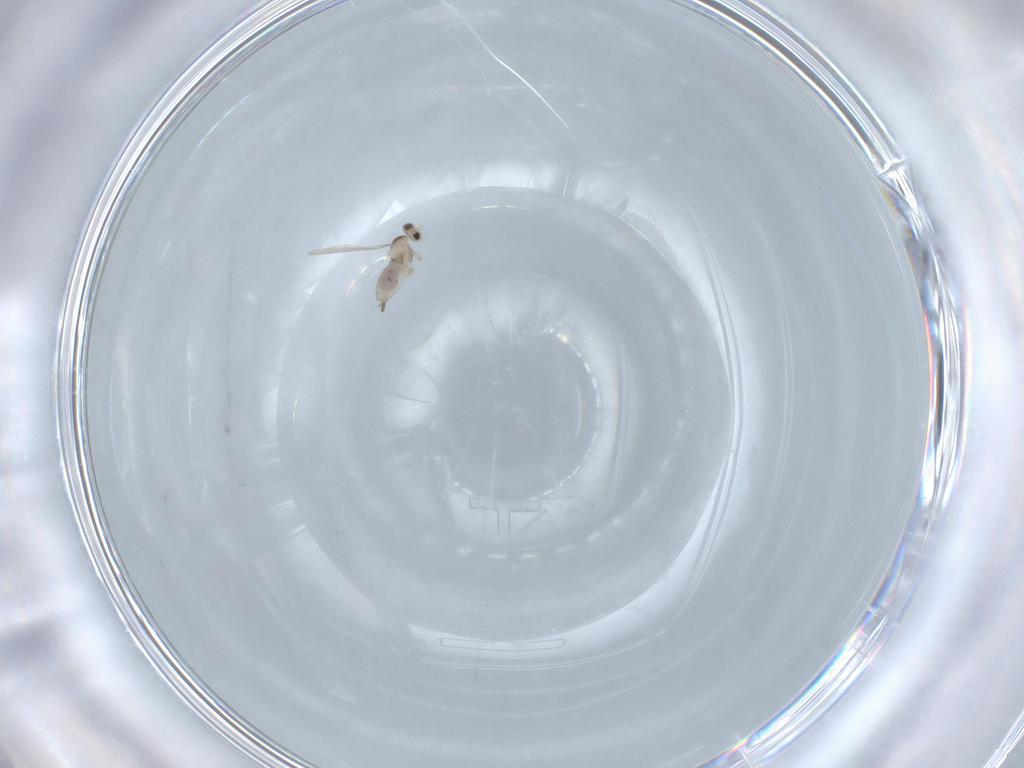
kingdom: Animalia
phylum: Arthropoda
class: Insecta
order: Diptera
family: Cecidomyiidae
